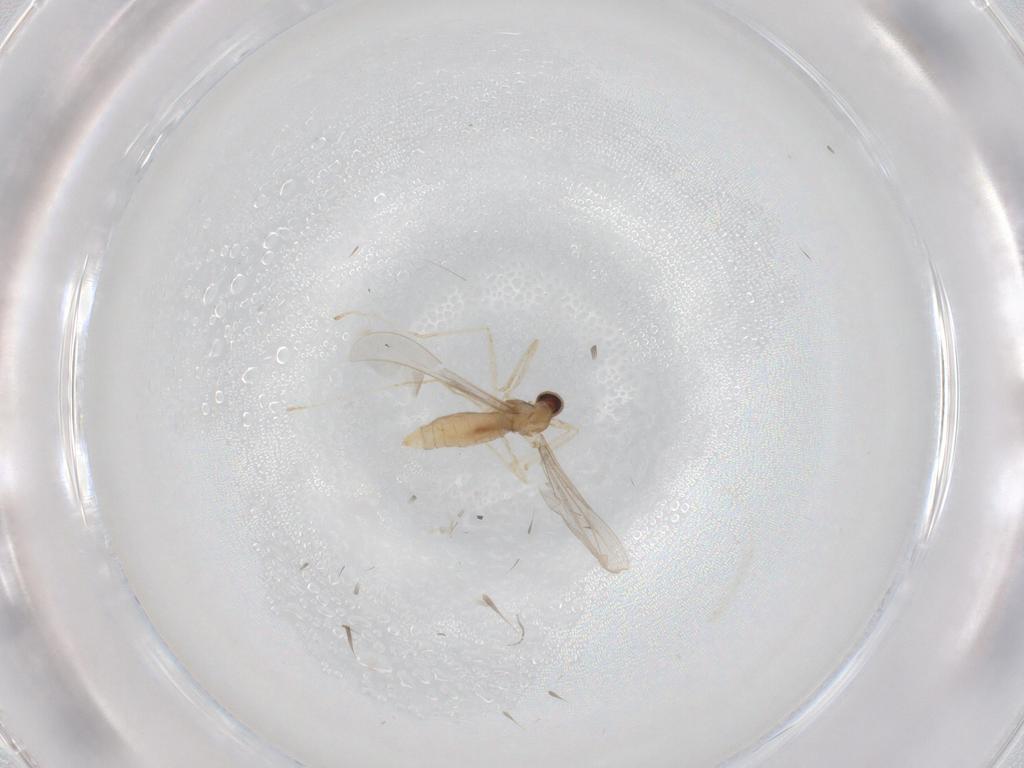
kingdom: Animalia
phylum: Arthropoda
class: Insecta
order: Diptera
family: Cecidomyiidae
